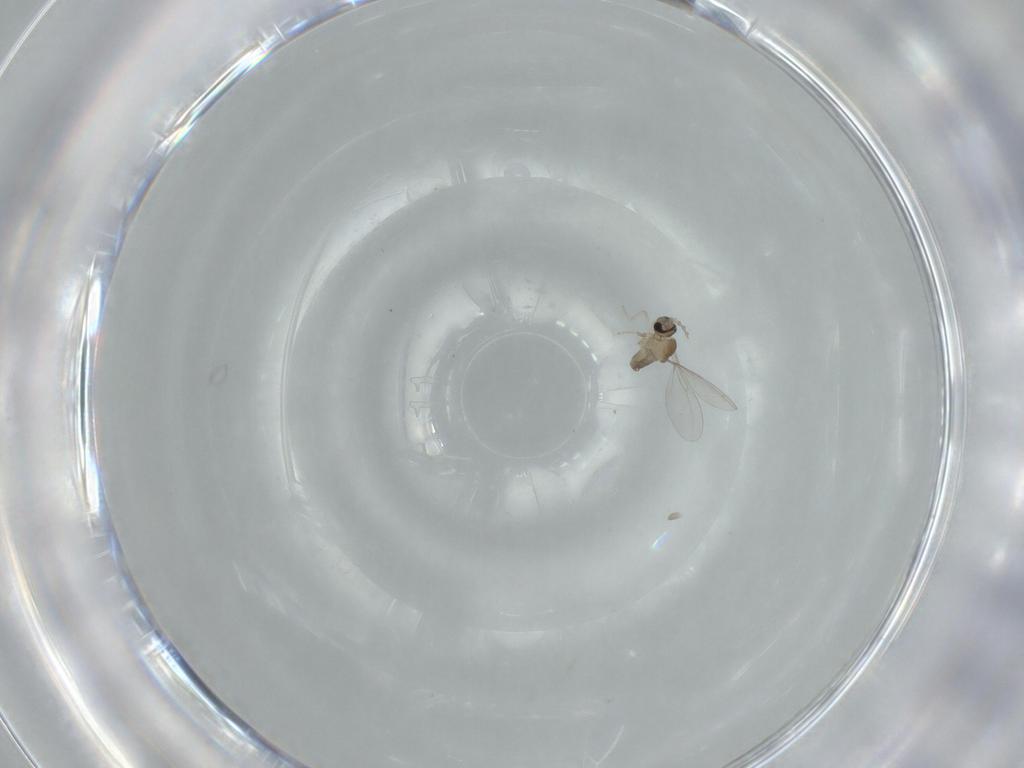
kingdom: Animalia
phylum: Arthropoda
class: Insecta
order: Diptera
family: Cecidomyiidae
